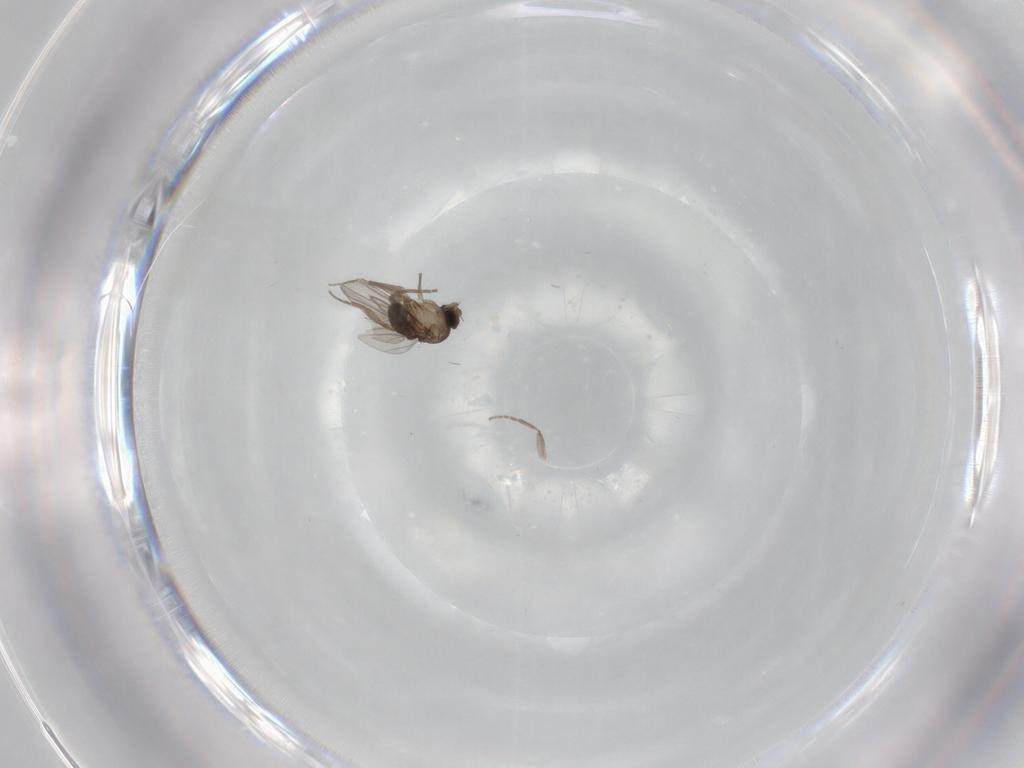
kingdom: Animalia
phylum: Arthropoda
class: Insecta
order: Diptera
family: Phoridae
